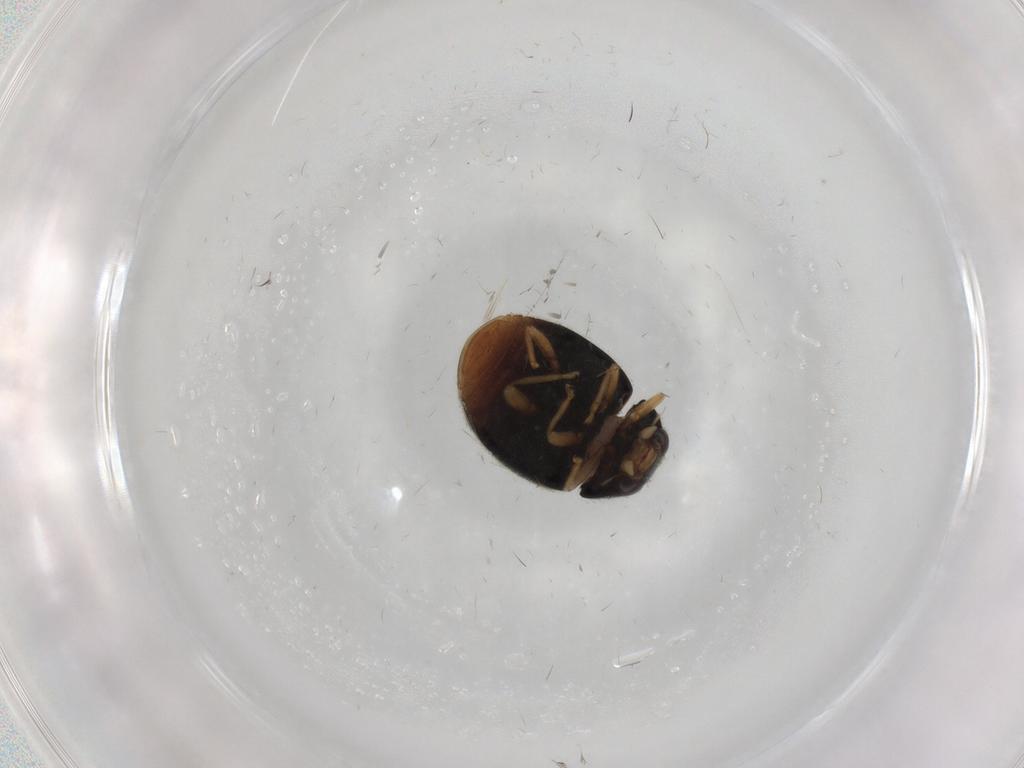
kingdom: Animalia
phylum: Arthropoda
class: Insecta
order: Coleoptera
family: Coccinellidae
